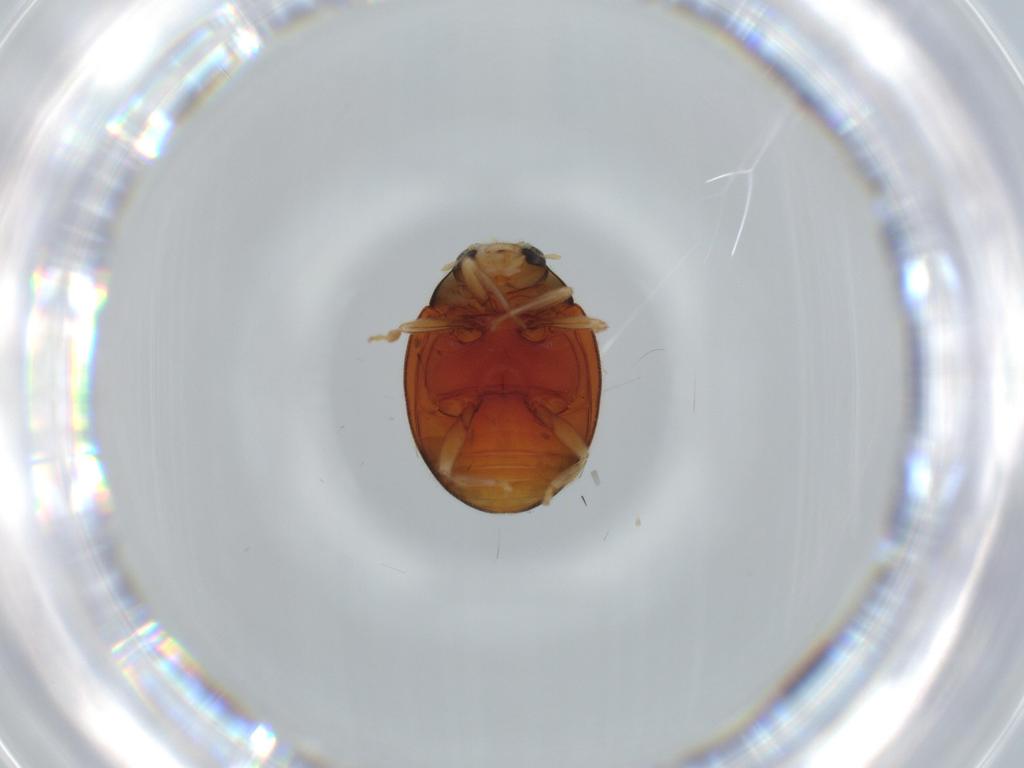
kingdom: Animalia
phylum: Arthropoda
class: Insecta
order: Coleoptera
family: Coccinellidae
